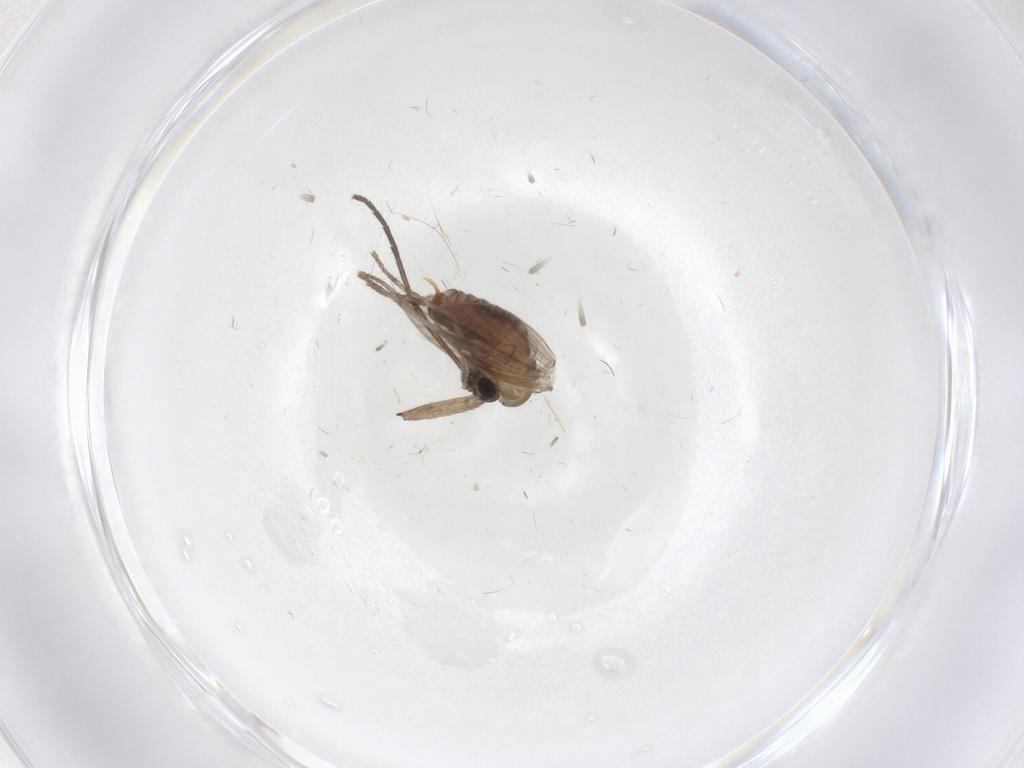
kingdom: Animalia
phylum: Arthropoda
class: Insecta
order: Diptera
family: Psychodidae
